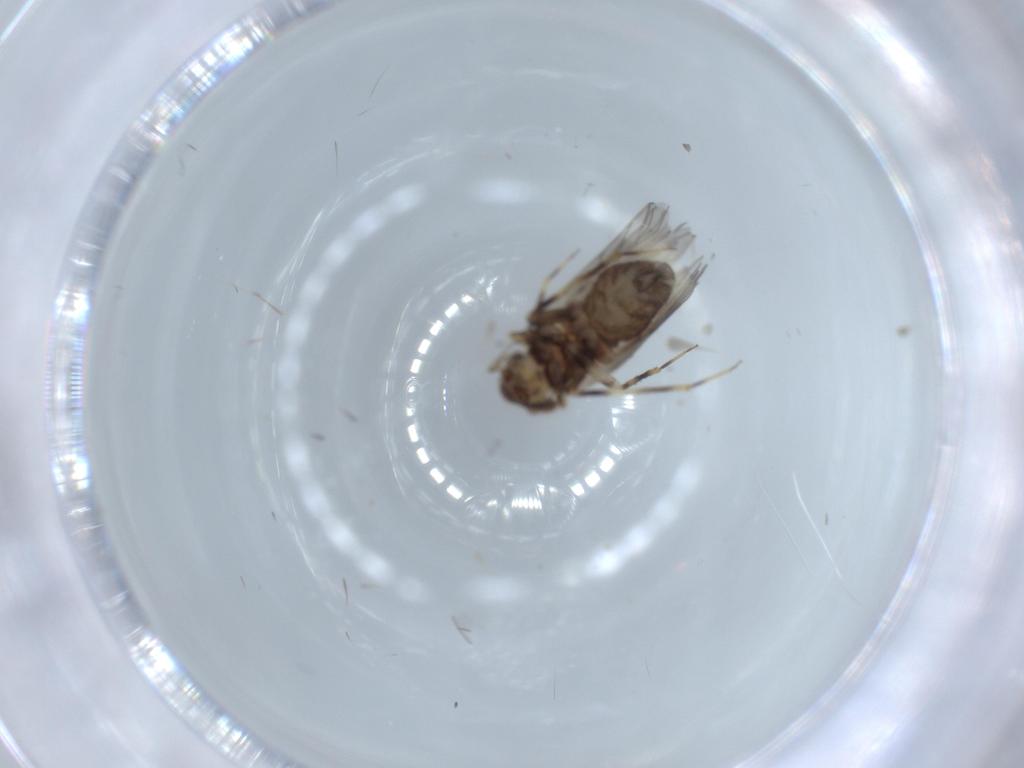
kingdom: Animalia
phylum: Arthropoda
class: Insecta
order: Psocodea
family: Lepidopsocidae
